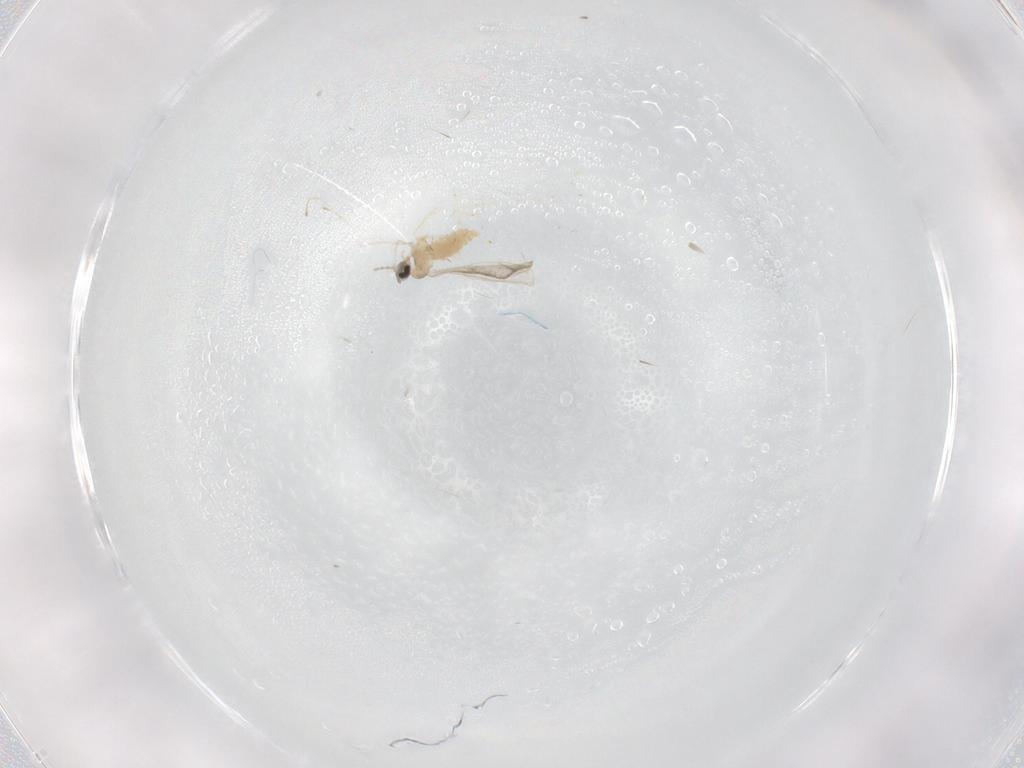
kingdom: Animalia
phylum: Arthropoda
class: Insecta
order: Diptera
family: Cecidomyiidae
